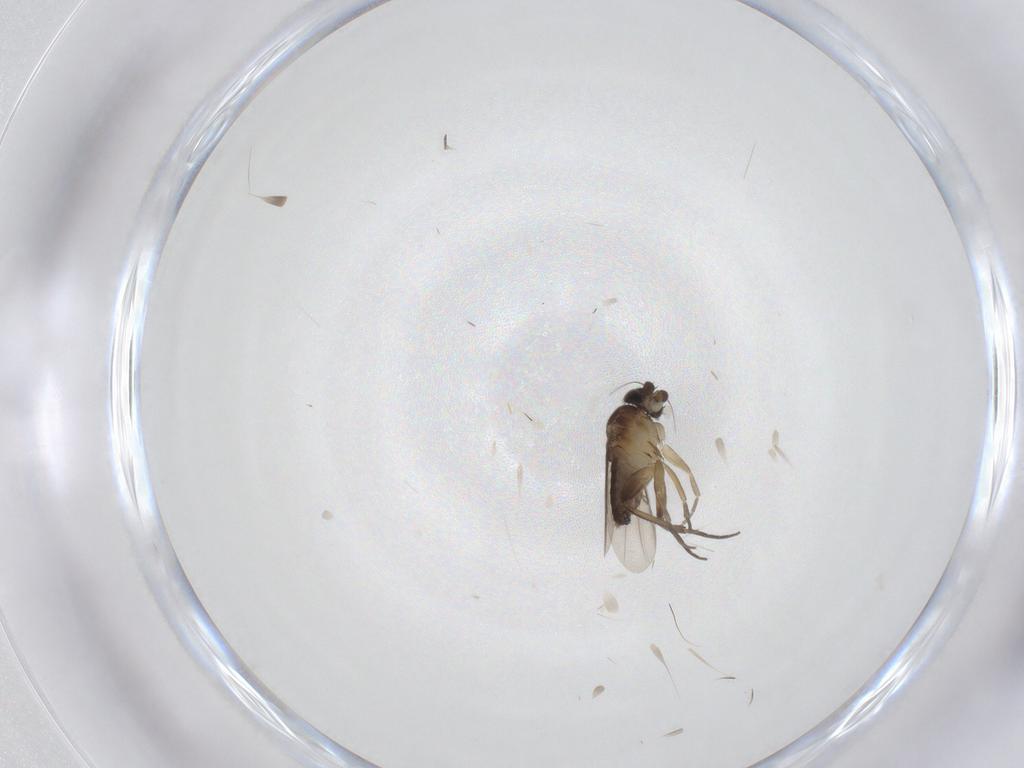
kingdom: Animalia
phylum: Arthropoda
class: Insecta
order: Diptera
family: Phoridae
